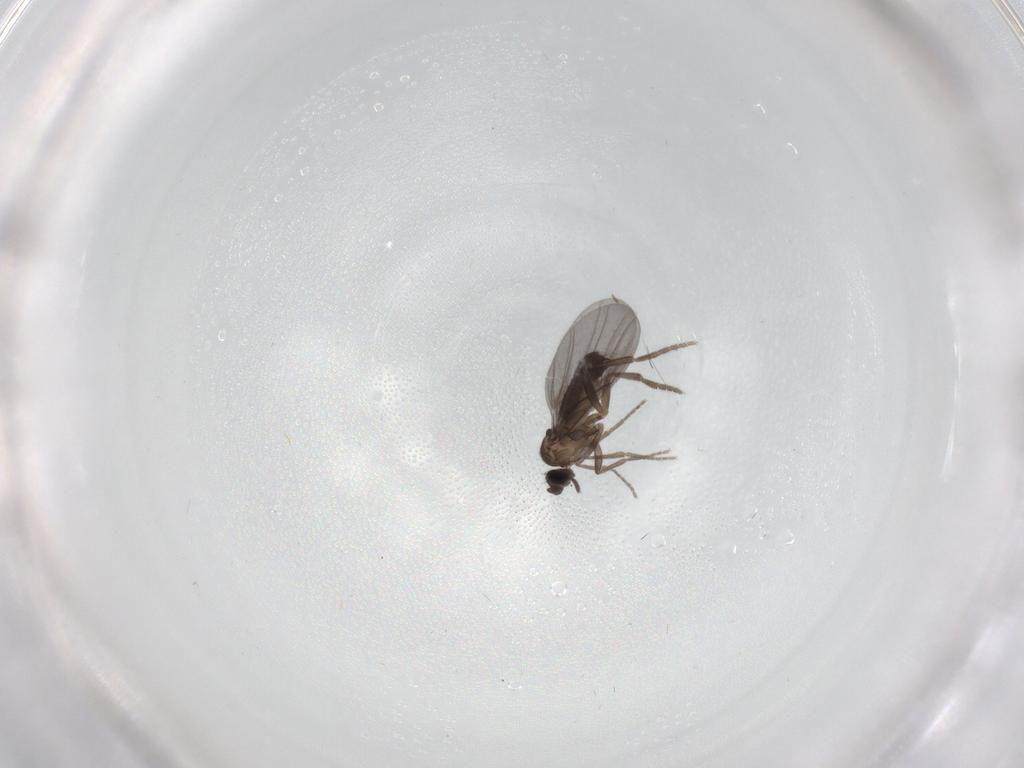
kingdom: Animalia
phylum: Arthropoda
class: Insecta
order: Diptera
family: Phoridae
